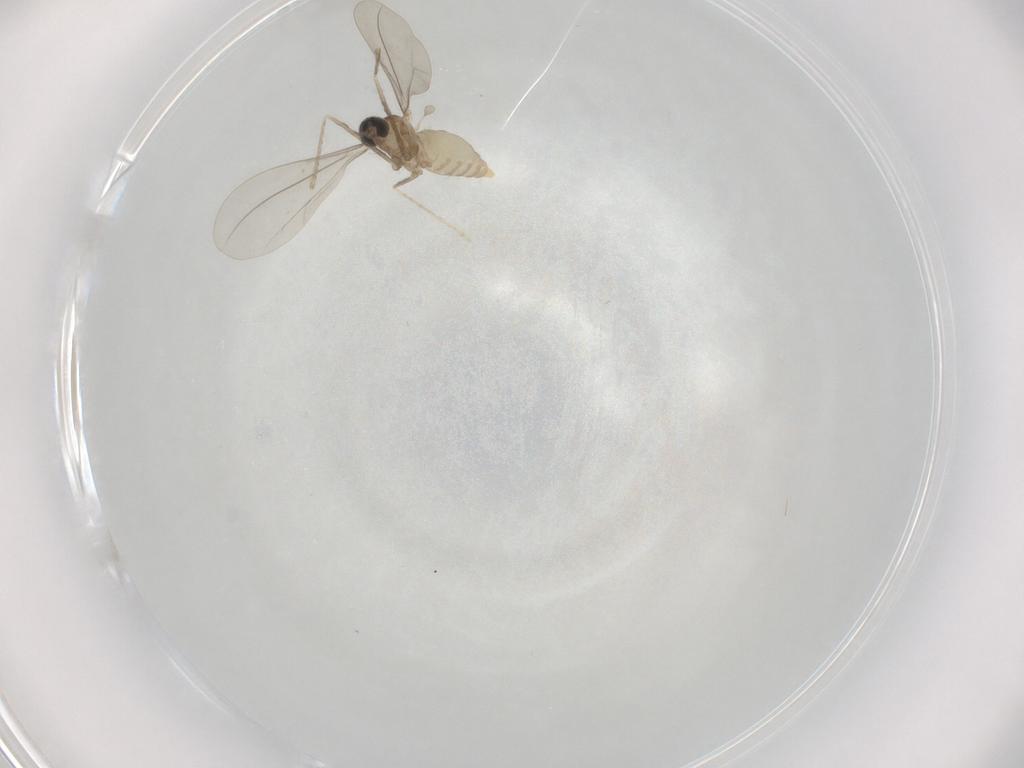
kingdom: Animalia
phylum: Arthropoda
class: Insecta
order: Diptera
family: Cecidomyiidae
